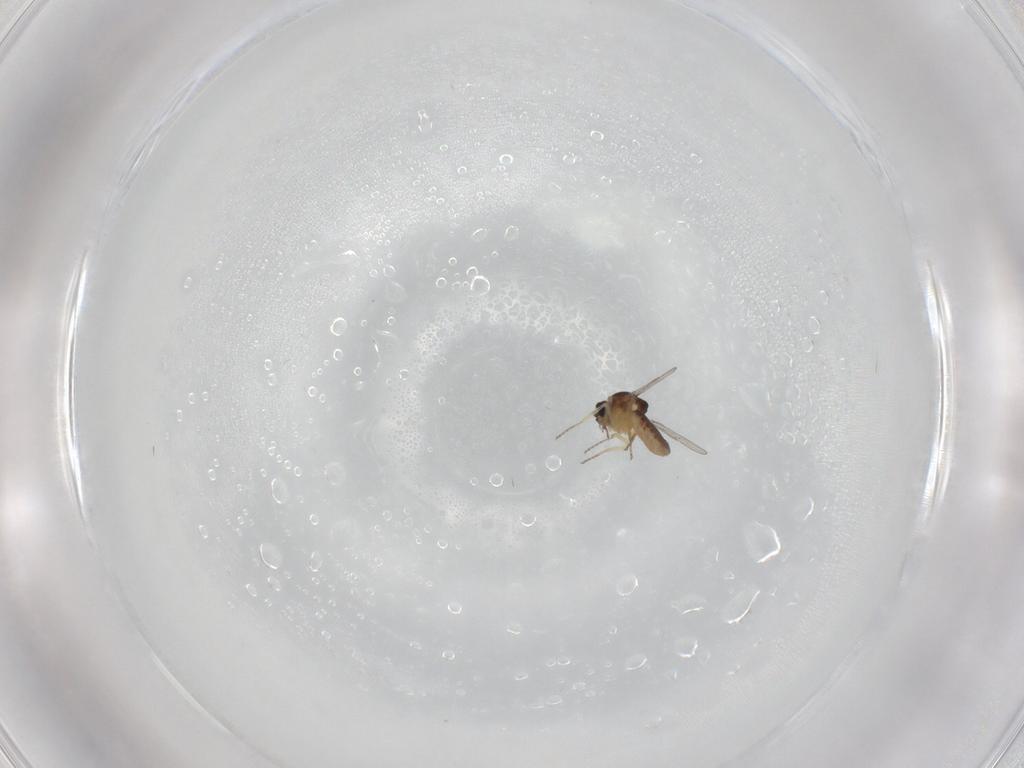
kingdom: Animalia
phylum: Arthropoda
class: Insecta
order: Diptera
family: Ceratopogonidae
